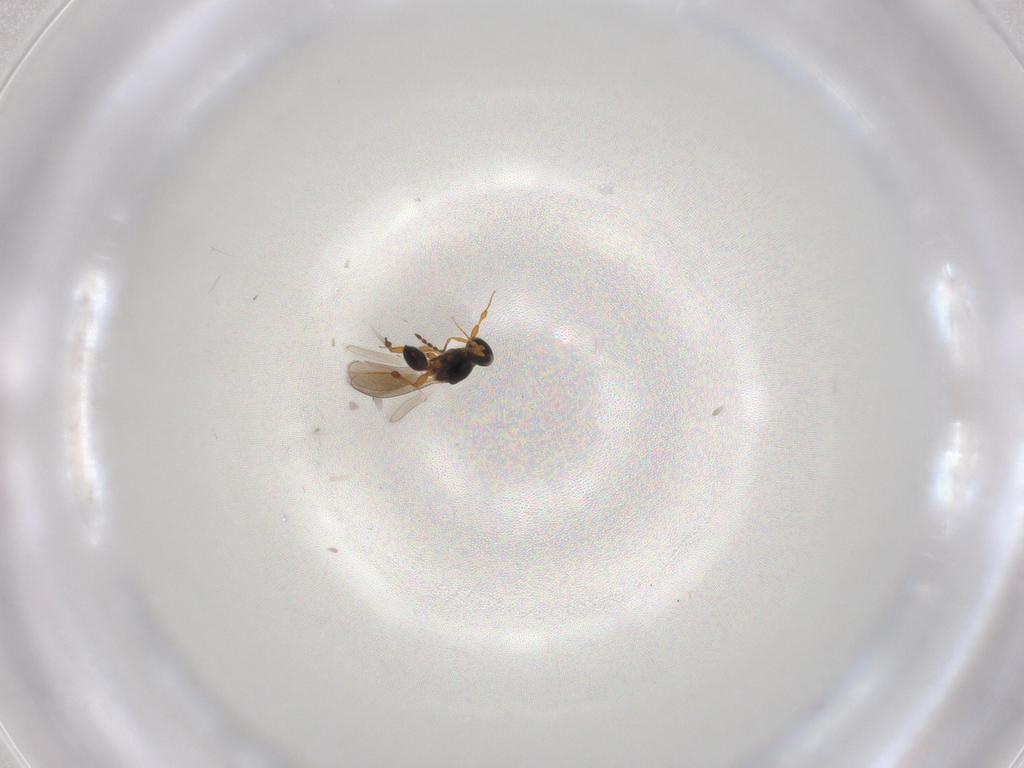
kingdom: Animalia
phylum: Arthropoda
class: Insecta
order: Hymenoptera
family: Platygastridae
